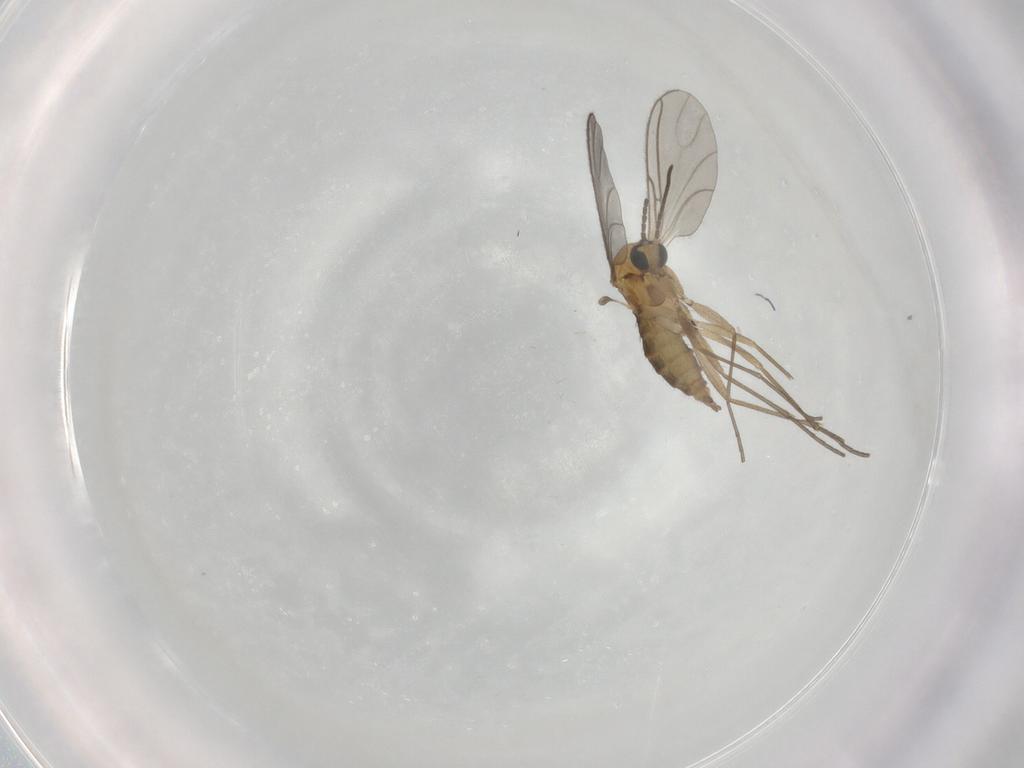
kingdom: Animalia
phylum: Arthropoda
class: Insecta
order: Diptera
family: Sciaridae
